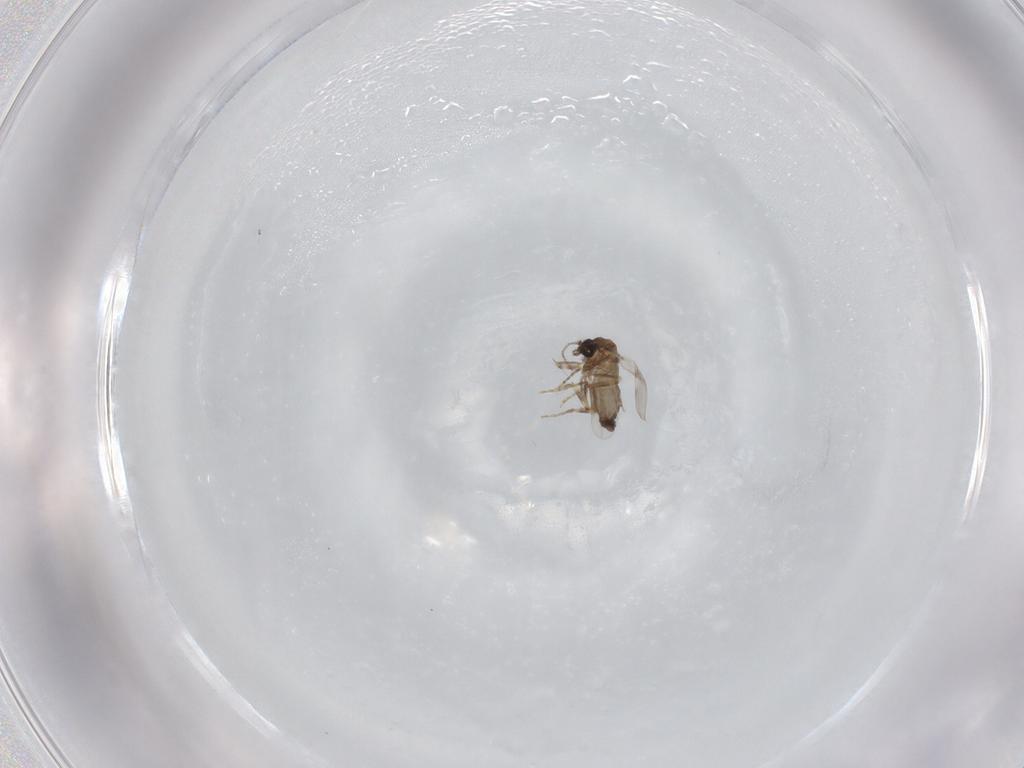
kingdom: Animalia
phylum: Arthropoda
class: Insecta
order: Diptera
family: Ceratopogonidae
